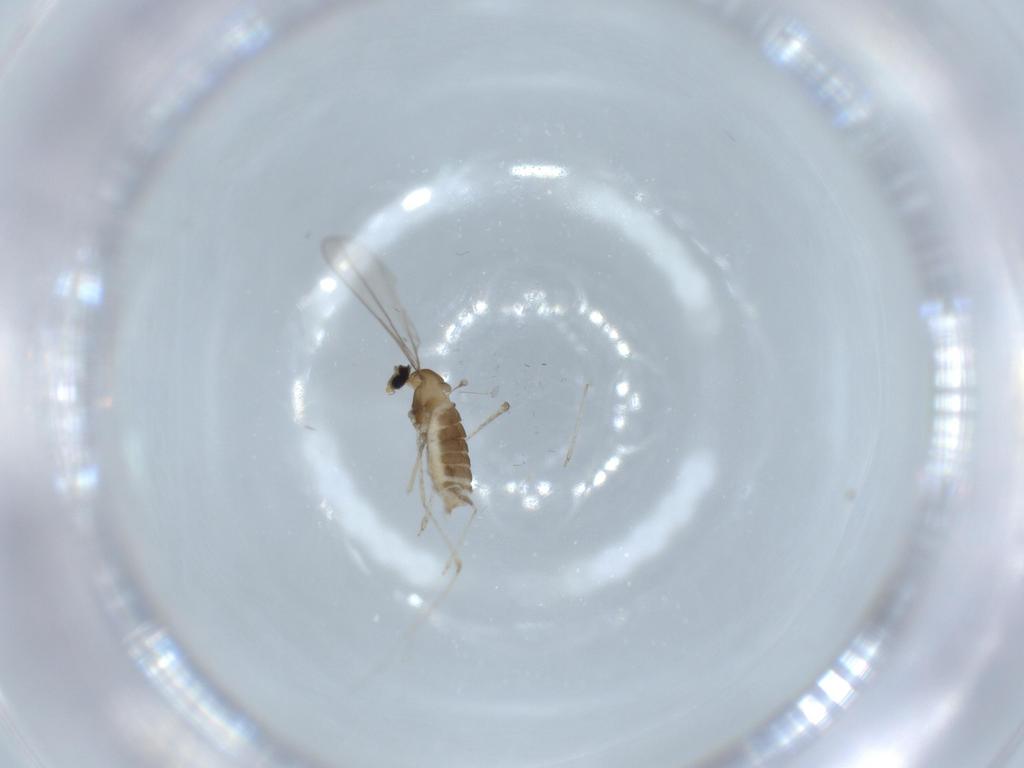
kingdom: Animalia
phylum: Arthropoda
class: Insecta
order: Diptera
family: Cecidomyiidae
